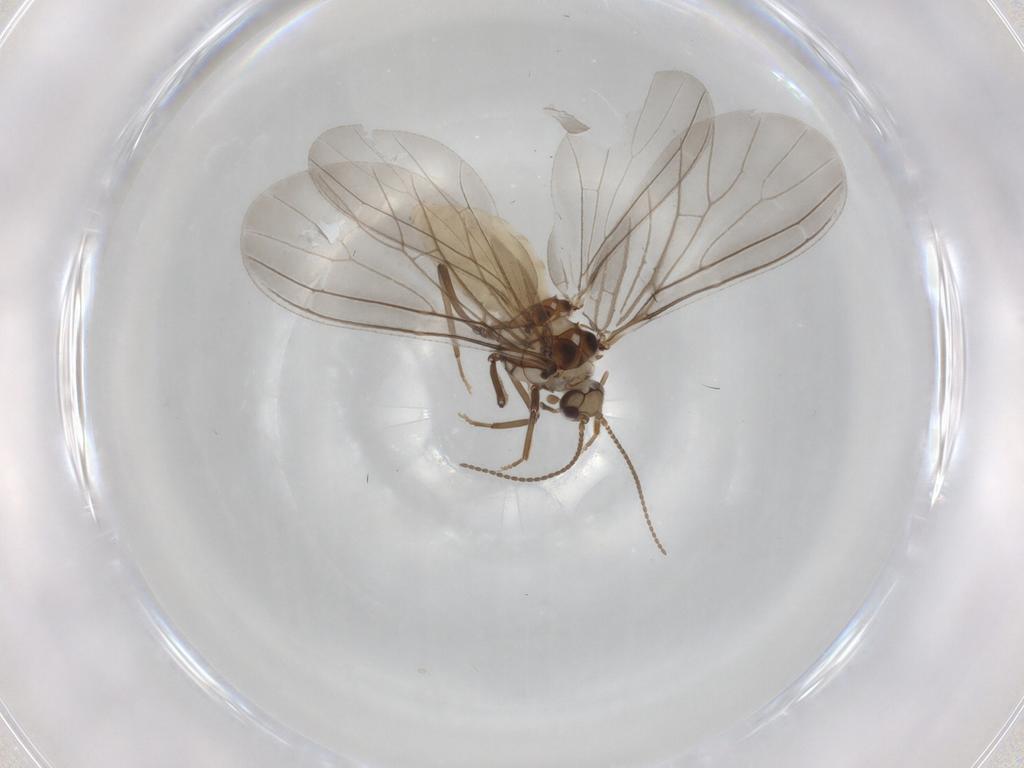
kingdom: Animalia
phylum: Arthropoda
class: Insecta
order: Neuroptera
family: Coniopterygidae
